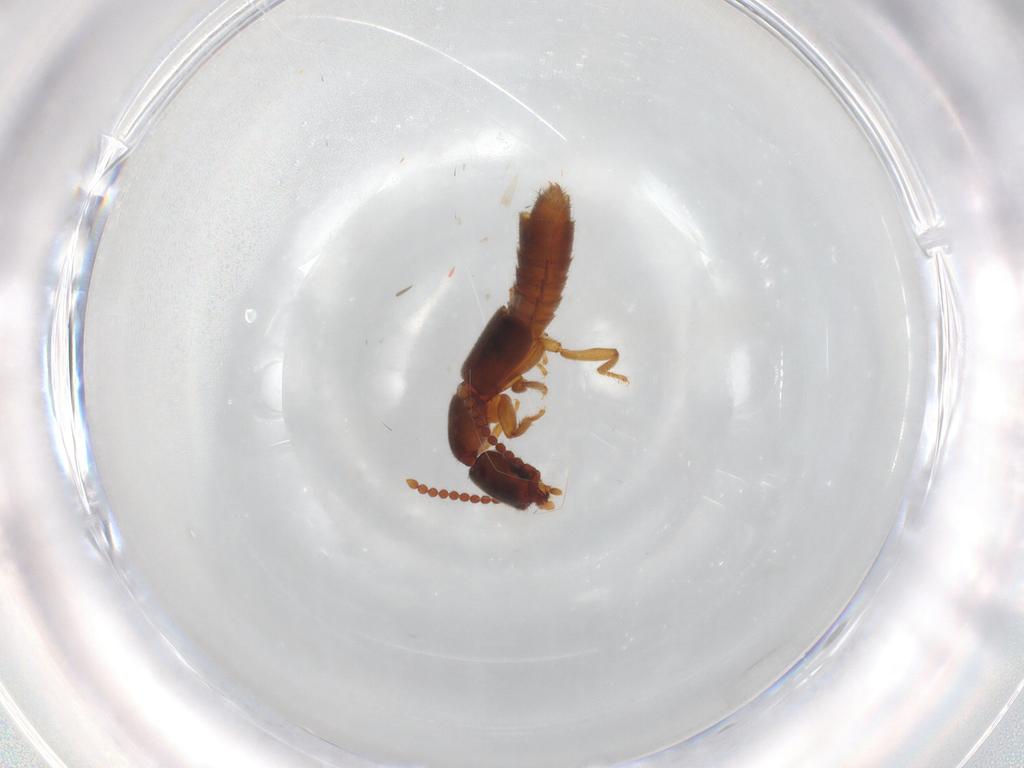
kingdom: Animalia
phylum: Arthropoda
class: Insecta
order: Coleoptera
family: Staphylinidae
